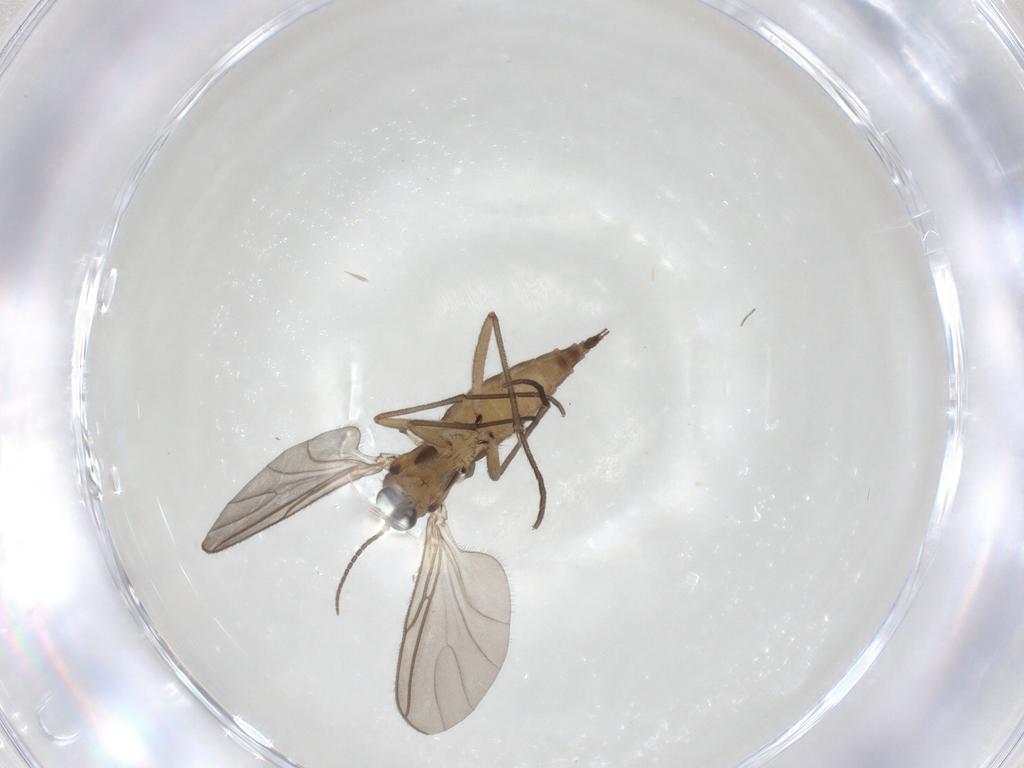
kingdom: Animalia
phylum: Arthropoda
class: Insecta
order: Diptera
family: Sciaridae
